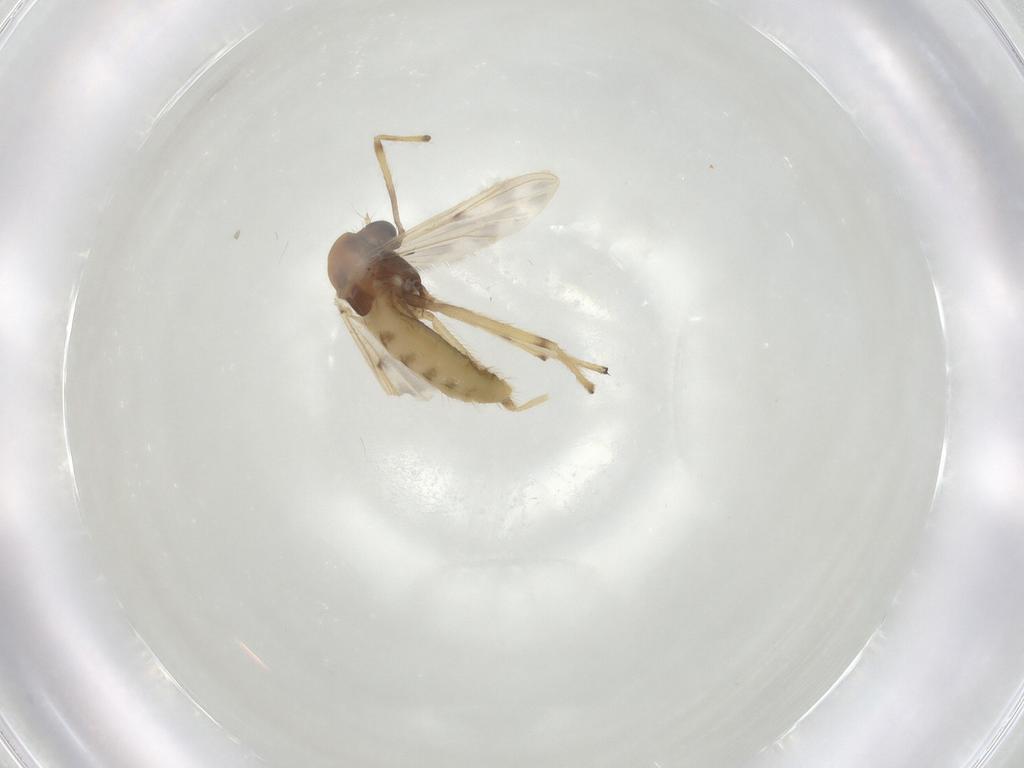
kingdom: Animalia
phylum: Arthropoda
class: Insecta
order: Diptera
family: Chironomidae
